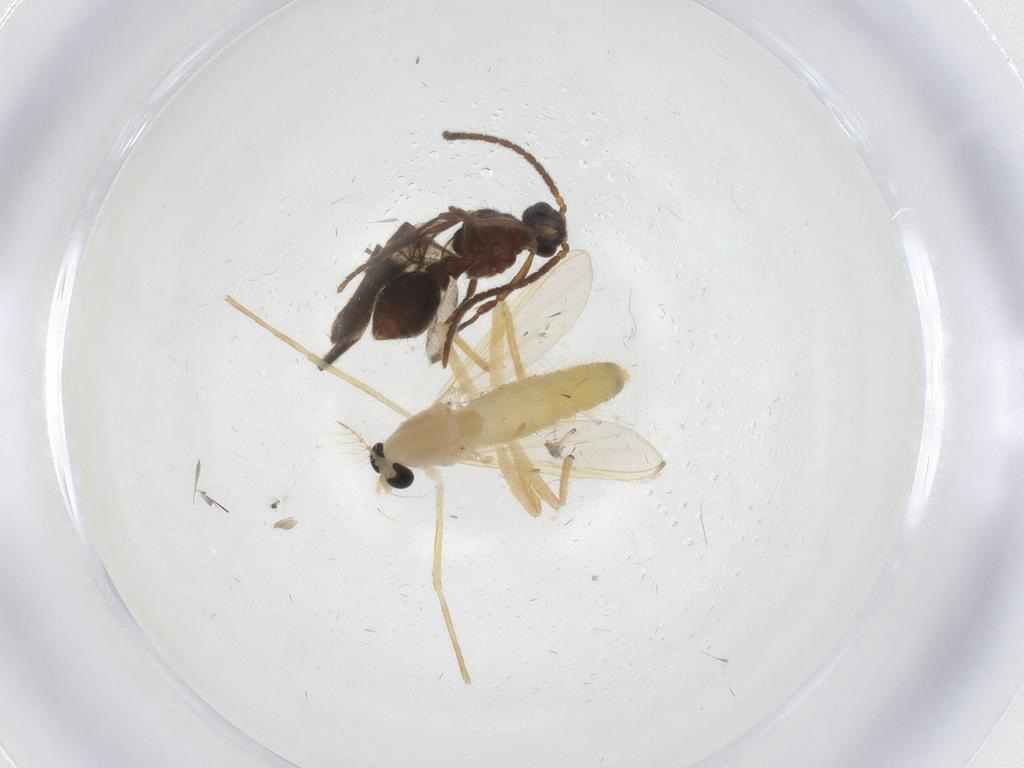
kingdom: Animalia
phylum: Arthropoda
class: Insecta
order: Diptera
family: Chironomidae
